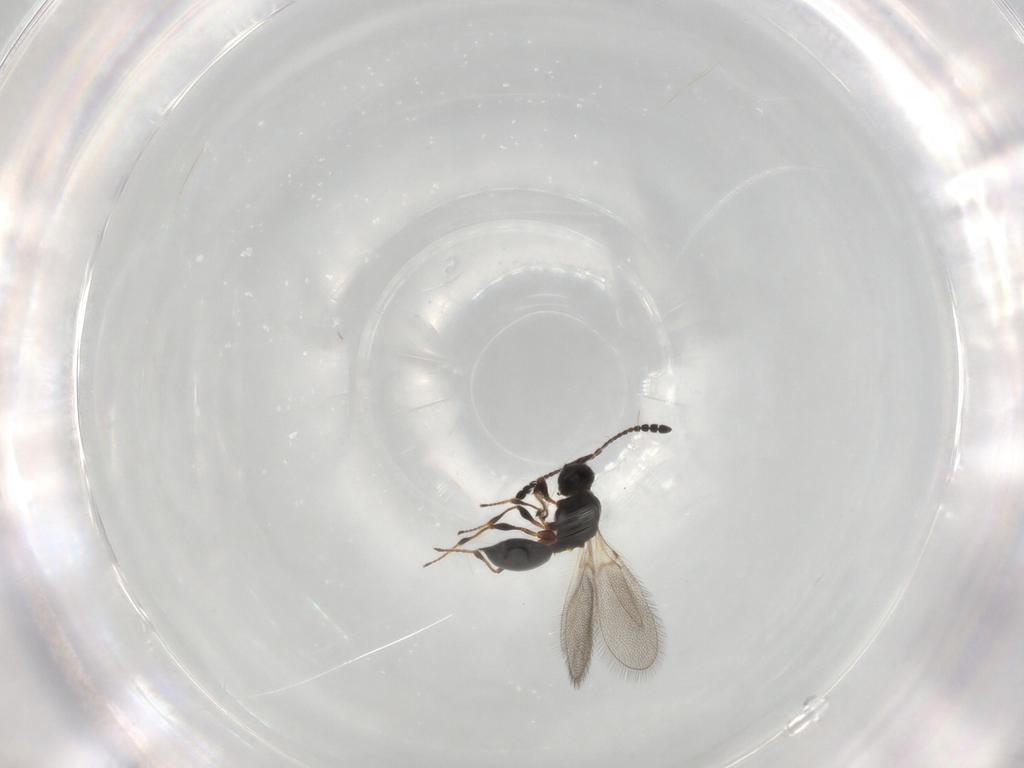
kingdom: Animalia
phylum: Arthropoda
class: Insecta
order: Hymenoptera
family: Diapriidae
